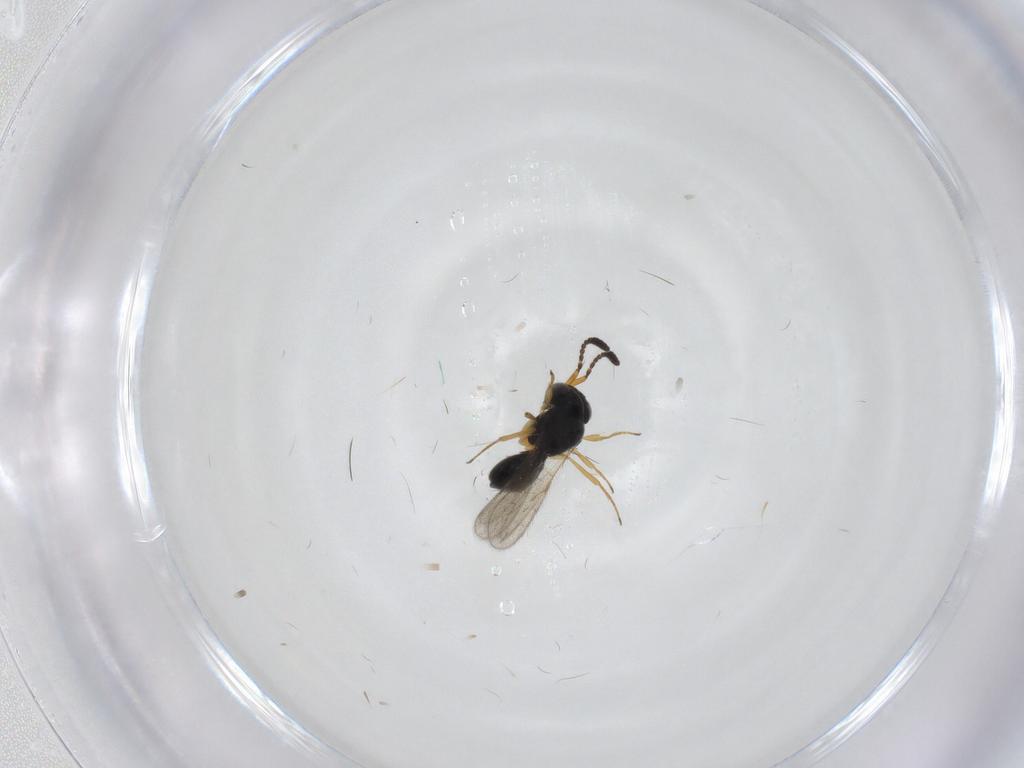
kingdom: Animalia
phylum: Arthropoda
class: Insecta
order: Hymenoptera
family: Scelionidae
